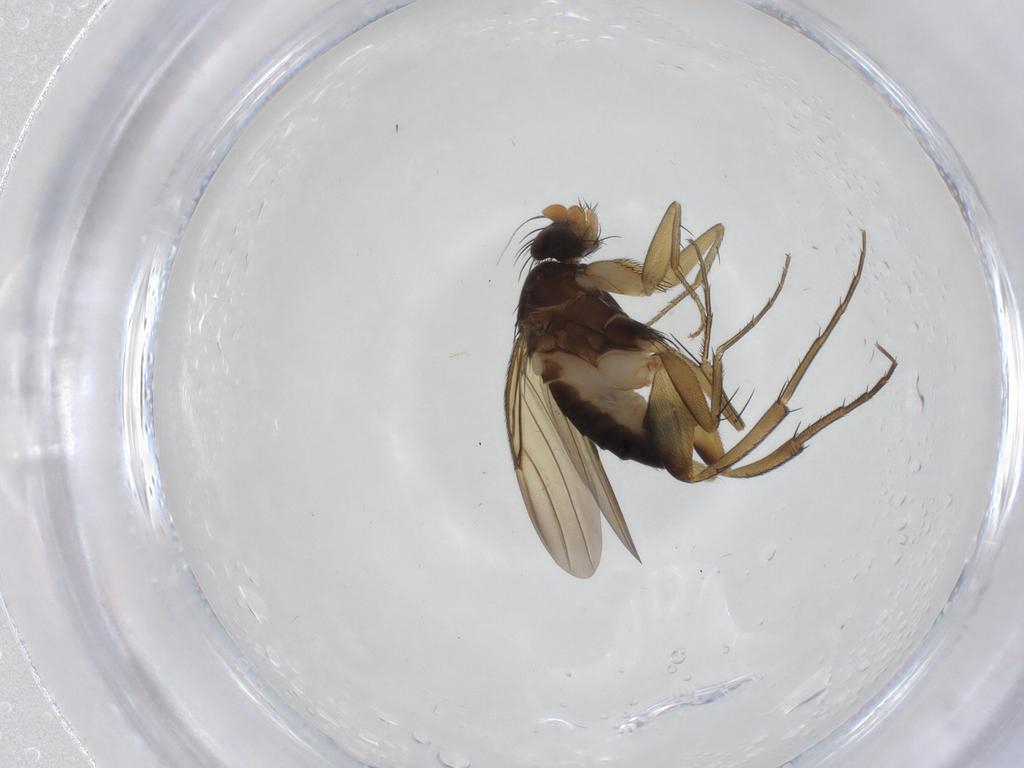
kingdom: Animalia
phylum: Arthropoda
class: Insecta
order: Diptera
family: Phoridae
